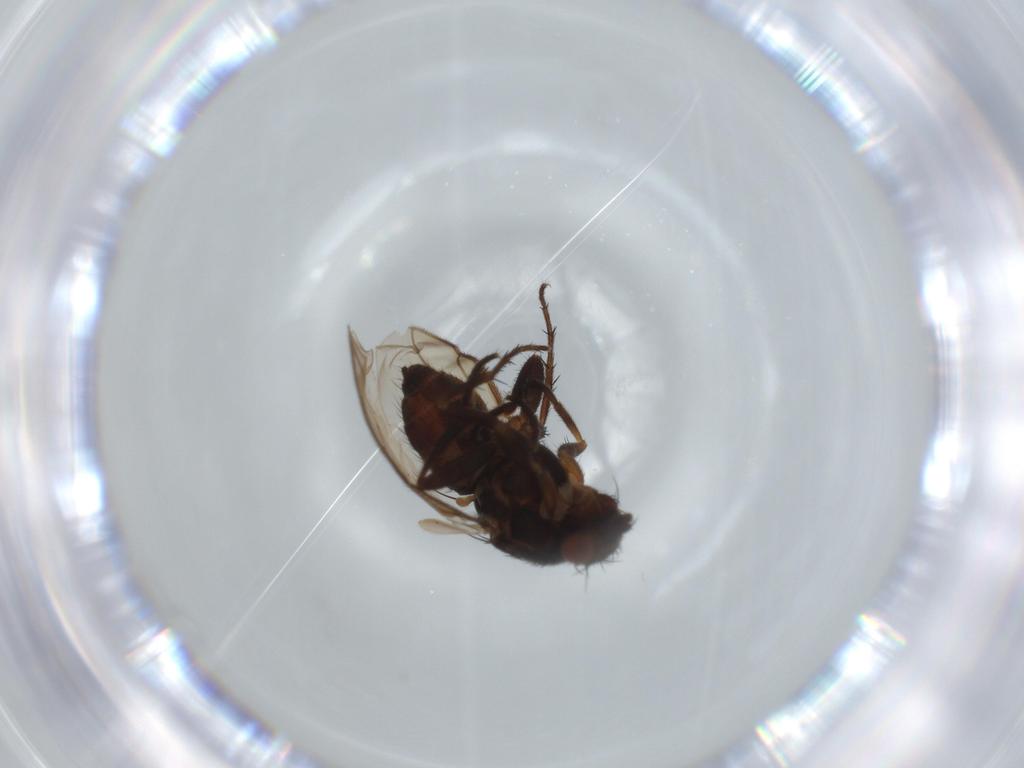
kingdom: Animalia
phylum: Arthropoda
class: Insecta
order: Diptera
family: Sphaeroceridae
